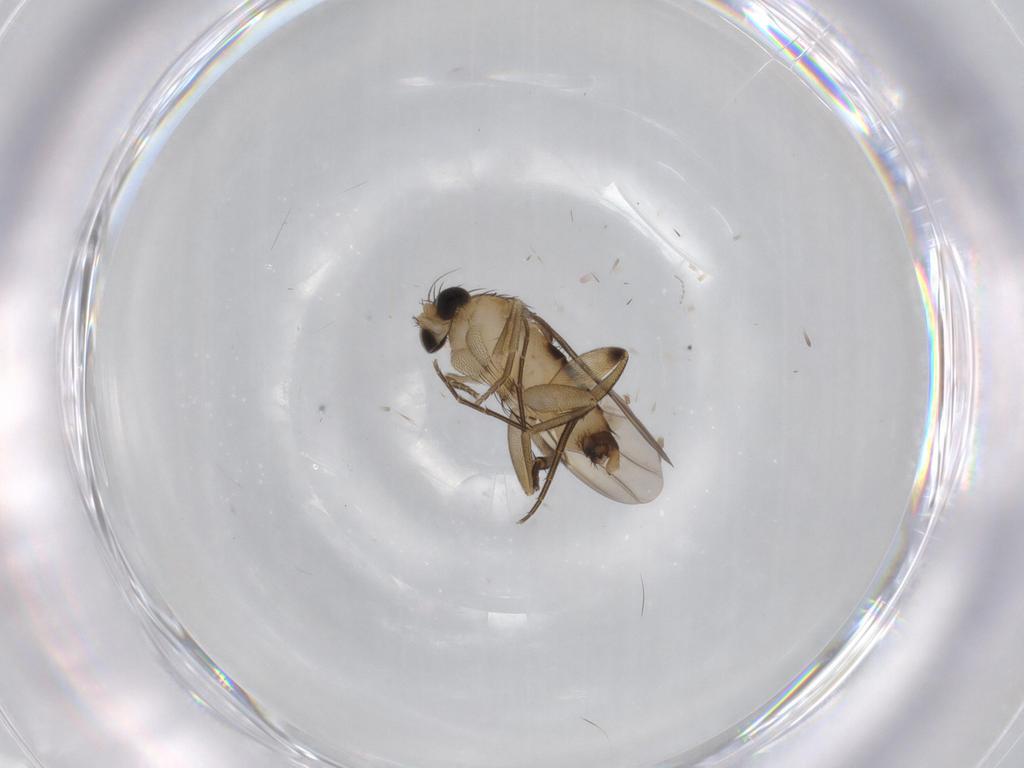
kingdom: Animalia
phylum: Arthropoda
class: Insecta
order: Diptera
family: Phoridae
